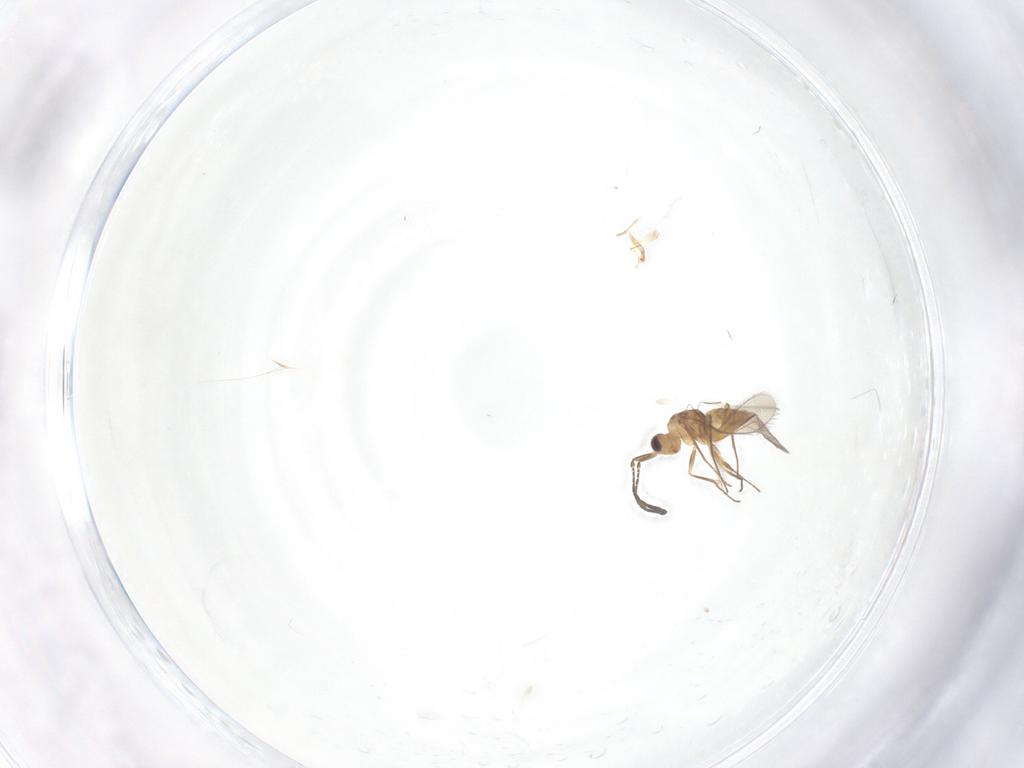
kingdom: Animalia
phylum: Arthropoda
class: Insecta
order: Hymenoptera
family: Mymaridae
